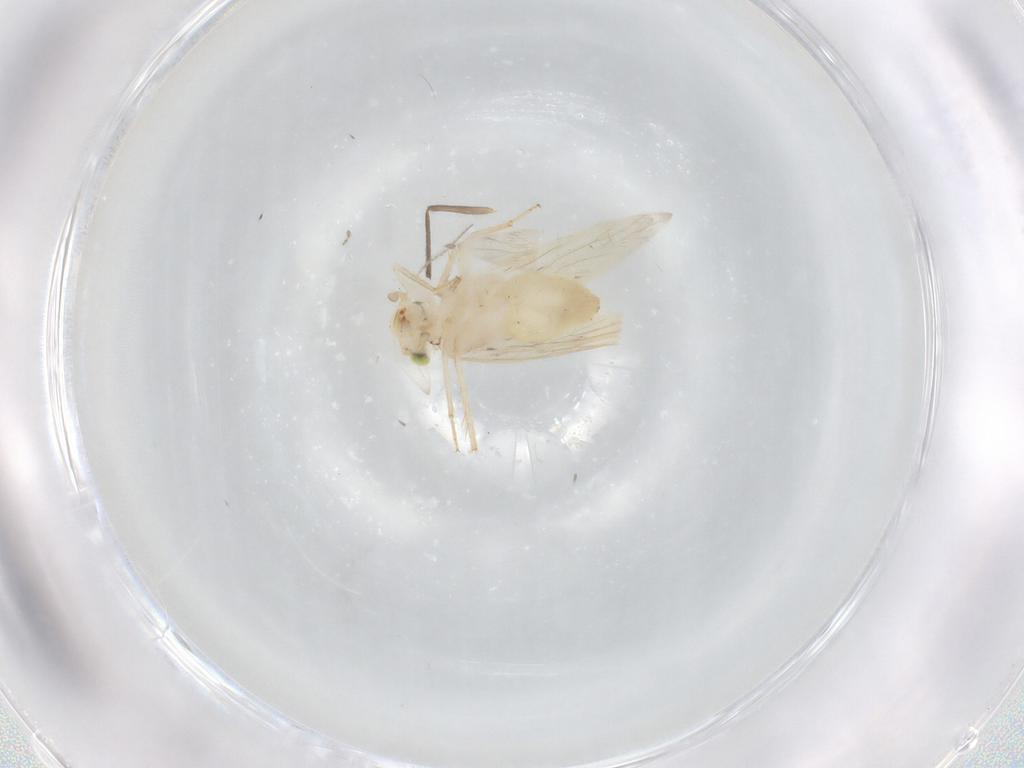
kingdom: Animalia
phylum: Arthropoda
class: Insecta
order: Psocodea
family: Lepidopsocidae
